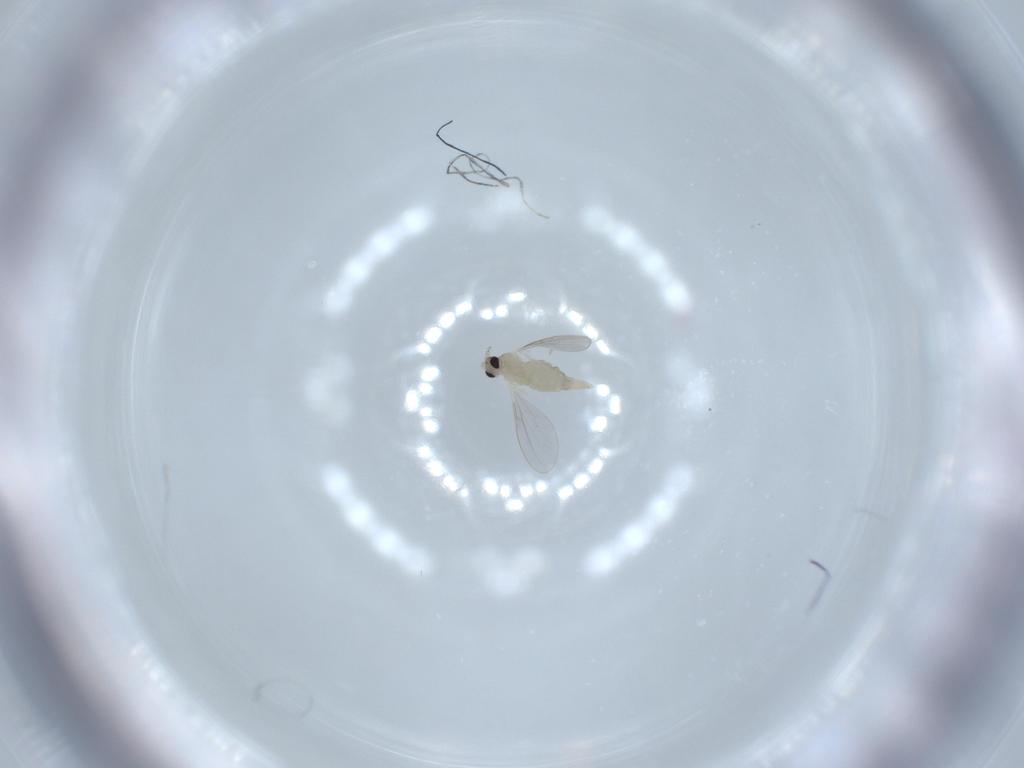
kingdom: Animalia
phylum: Arthropoda
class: Insecta
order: Diptera
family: Cecidomyiidae
